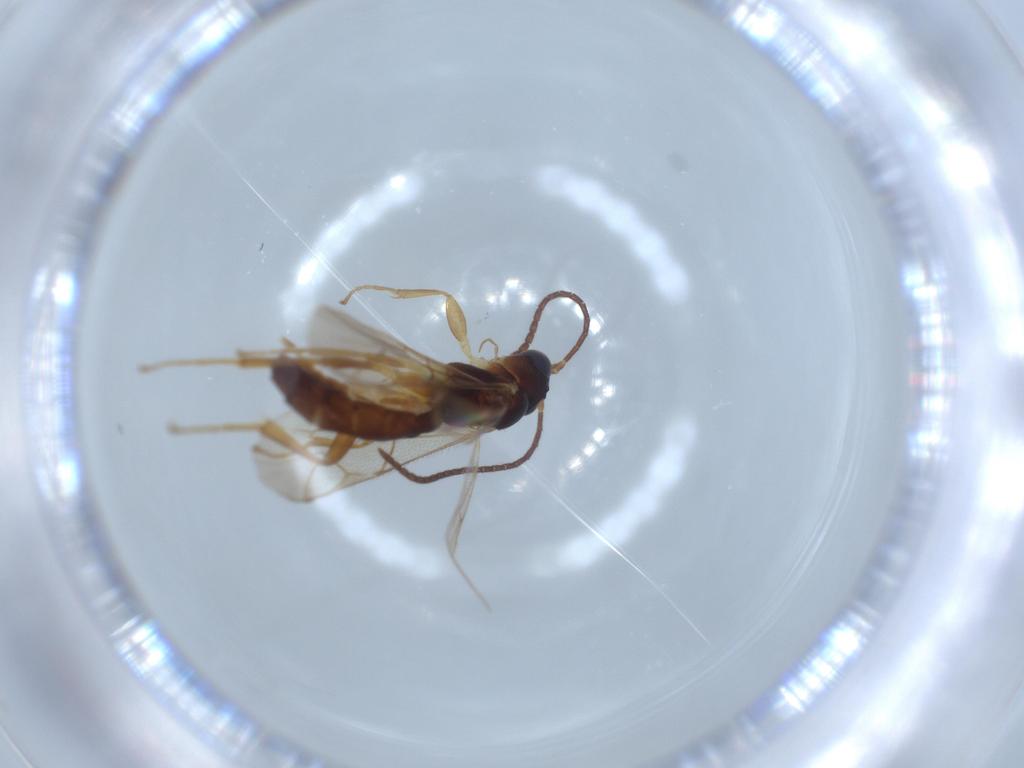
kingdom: Animalia
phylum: Arthropoda
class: Insecta
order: Hymenoptera
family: Ichneumonidae
